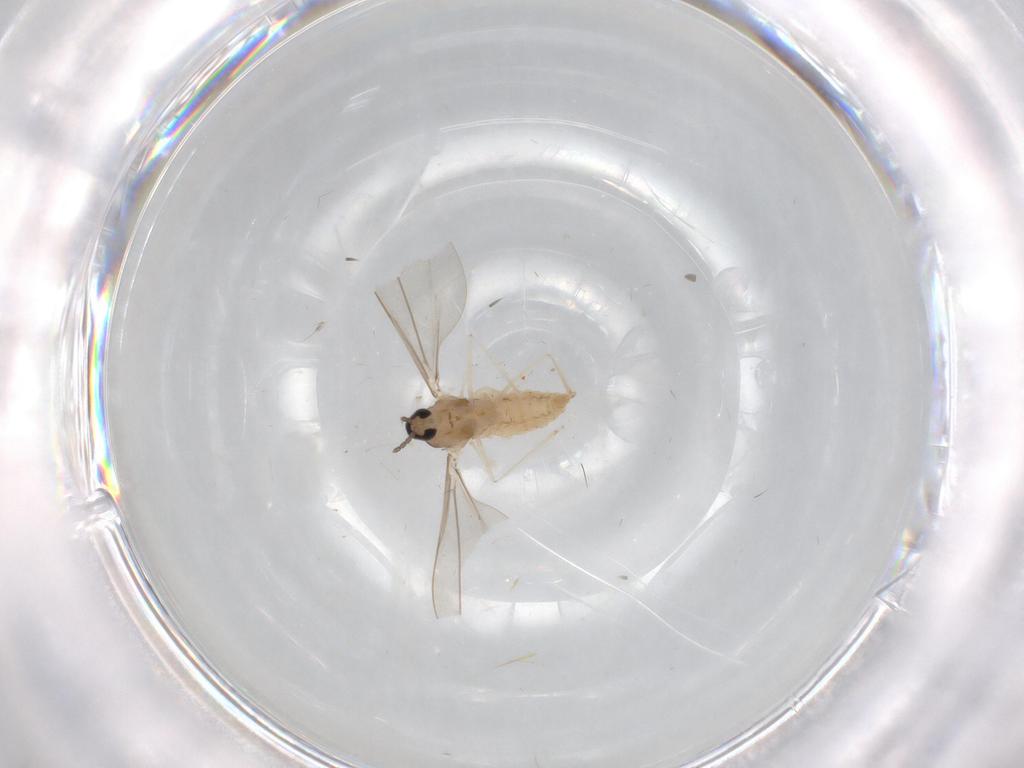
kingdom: Animalia
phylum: Arthropoda
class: Insecta
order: Diptera
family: Cecidomyiidae
